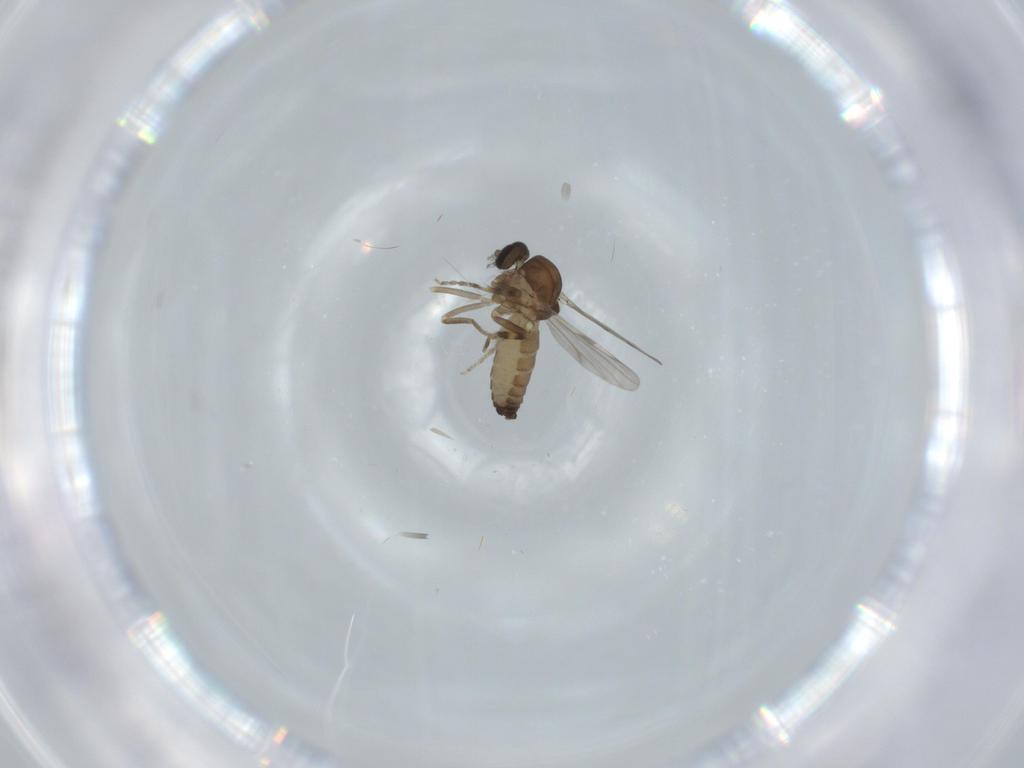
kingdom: Animalia
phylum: Arthropoda
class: Insecta
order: Diptera
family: Ceratopogonidae
